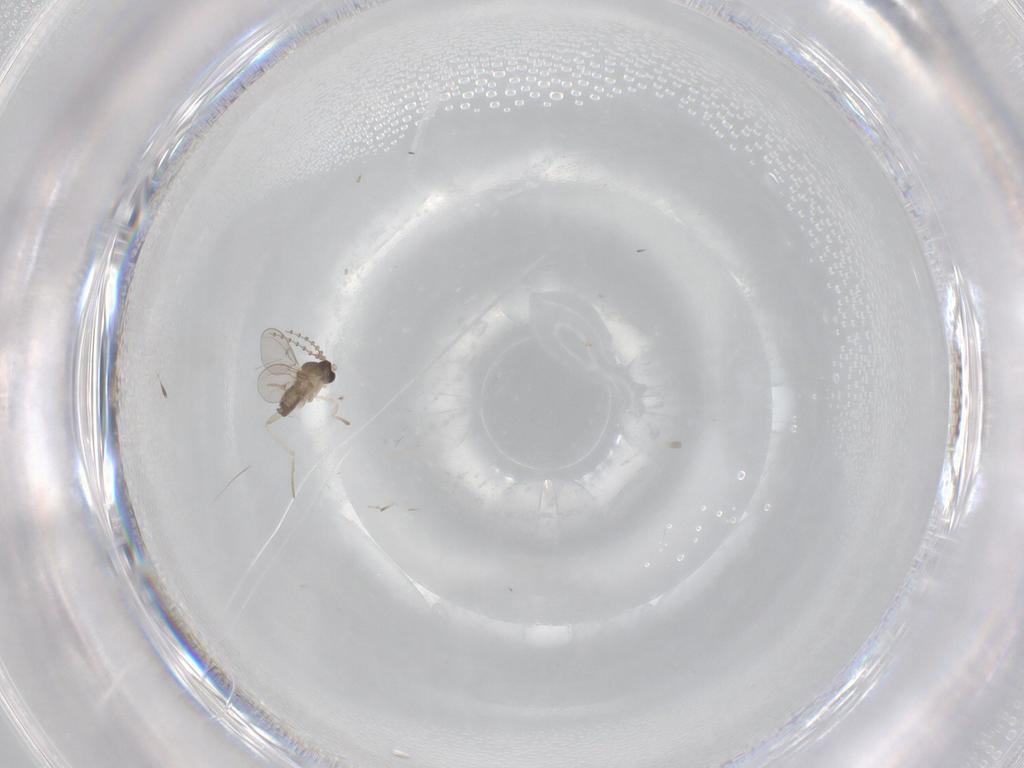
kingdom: Animalia
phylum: Arthropoda
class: Insecta
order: Diptera
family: Cecidomyiidae
